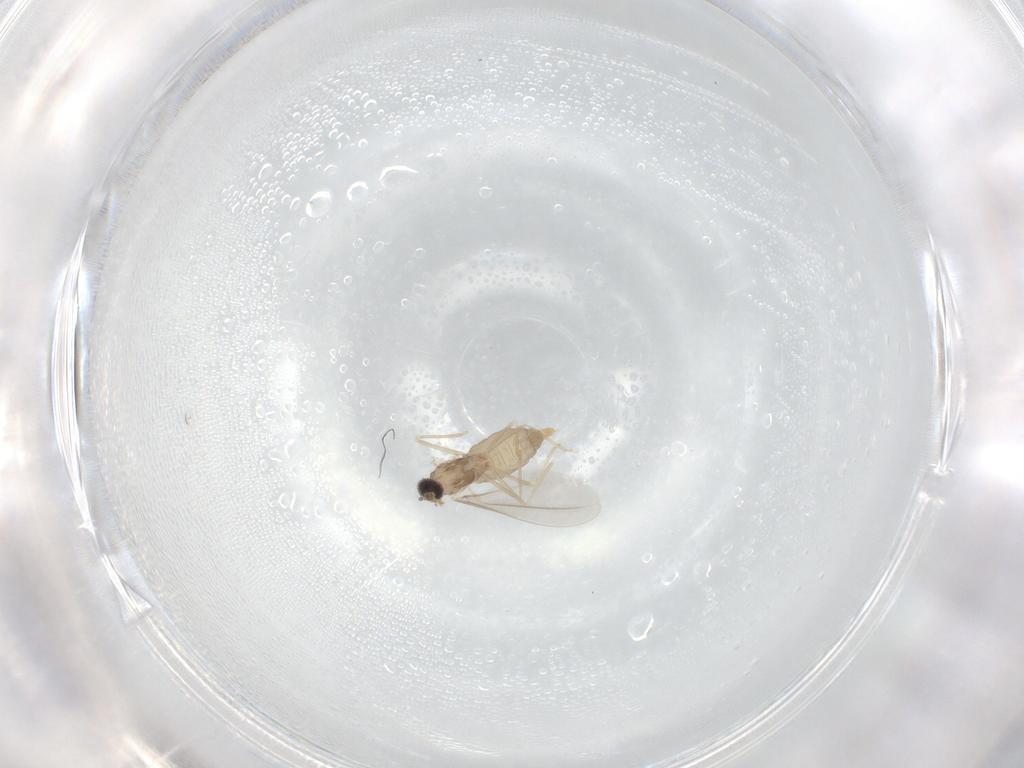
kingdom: Animalia
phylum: Arthropoda
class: Insecta
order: Diptera
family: Cecidomyiidae
